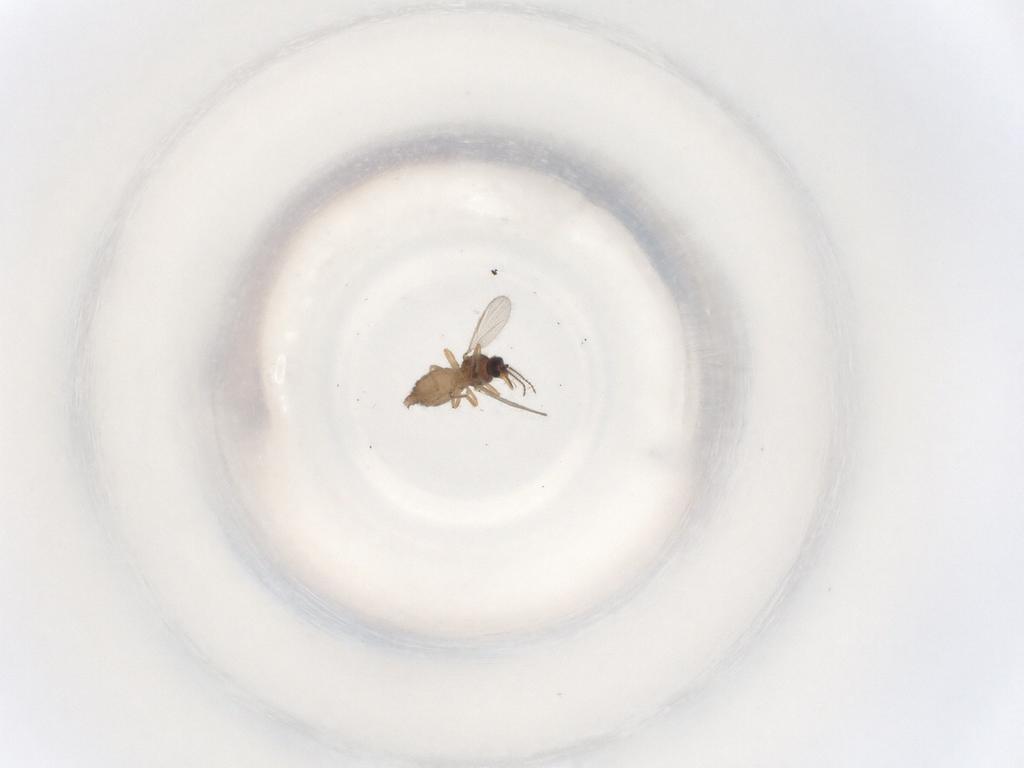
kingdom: Animalia
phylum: Arthropoda
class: Insecta
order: Diptera
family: Ceratopogonidae
